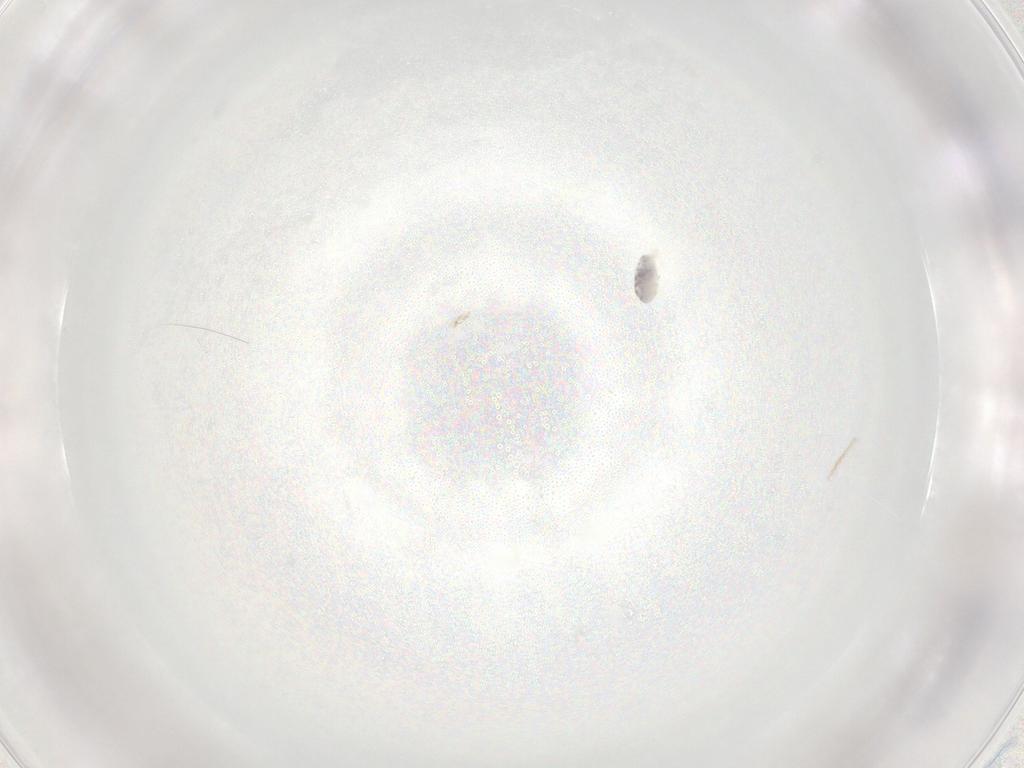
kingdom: Animalia
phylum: Arthropoda
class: Arachnida
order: Trombidiformes
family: Eupodidae
